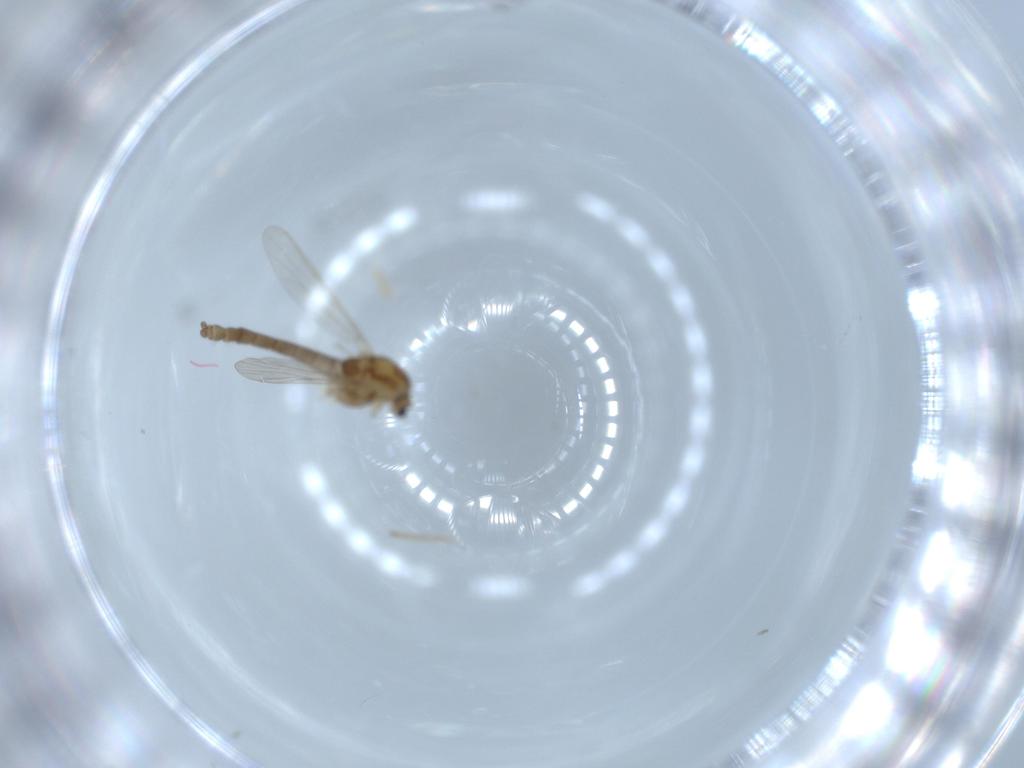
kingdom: Animalia
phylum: Arthropoda
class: Insecta
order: Diptera
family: Chironomidae
